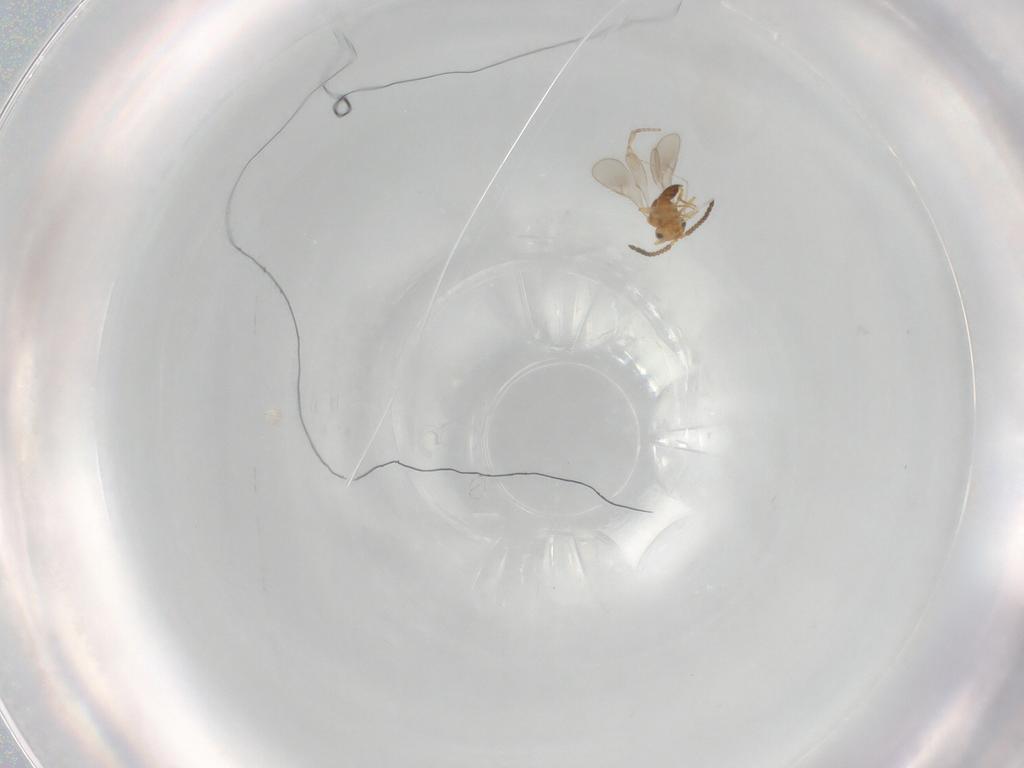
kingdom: Animalia
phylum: Arthropoda
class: Insecta
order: Hymenoptera
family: Scelionidae
